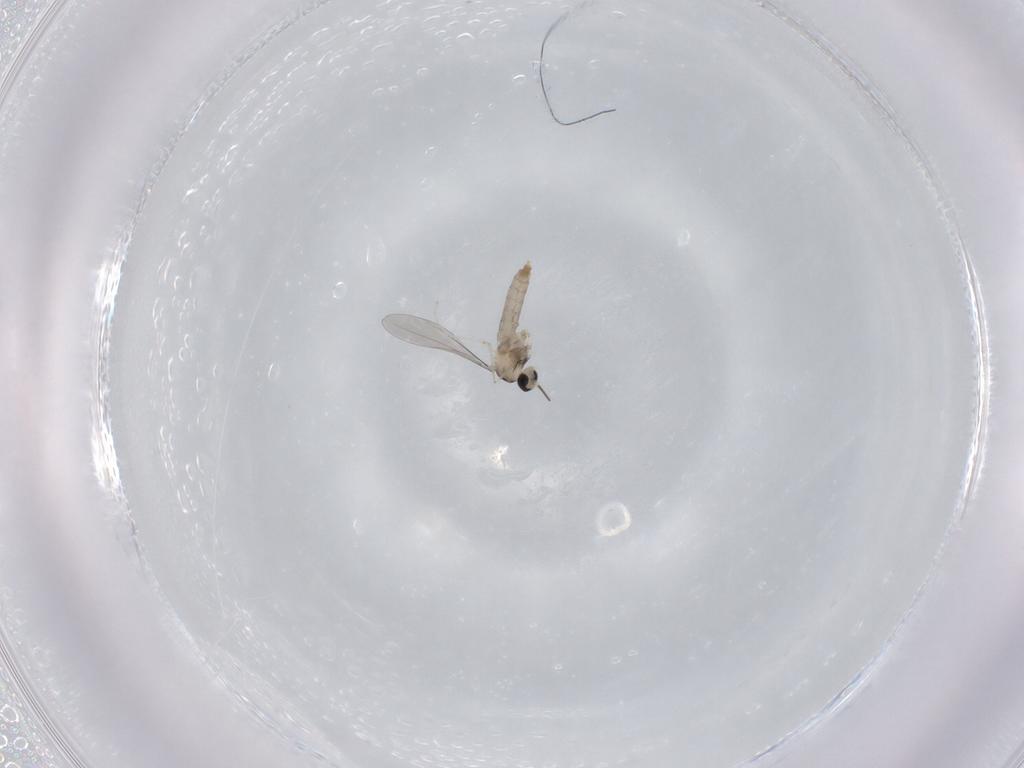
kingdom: Animalia
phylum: Arthropoda
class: Insecta
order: Diptera
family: Cecidomyiidae
